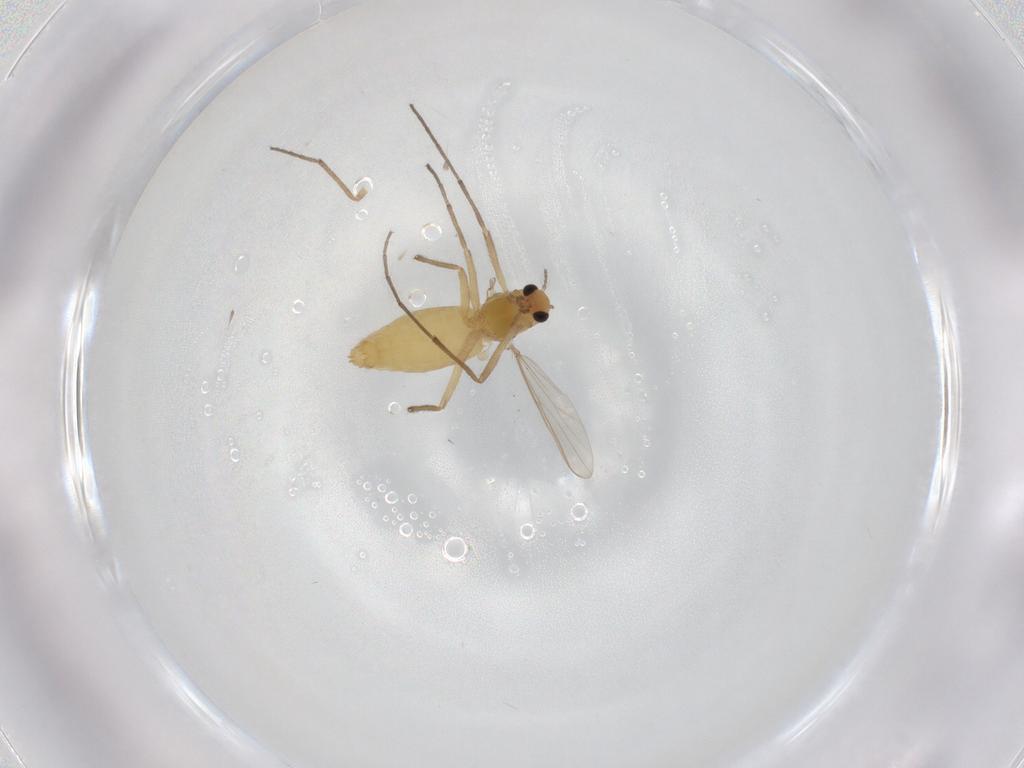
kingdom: Animalia
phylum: Arthropoda
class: Insecta
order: Diptera
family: Chironomidae
